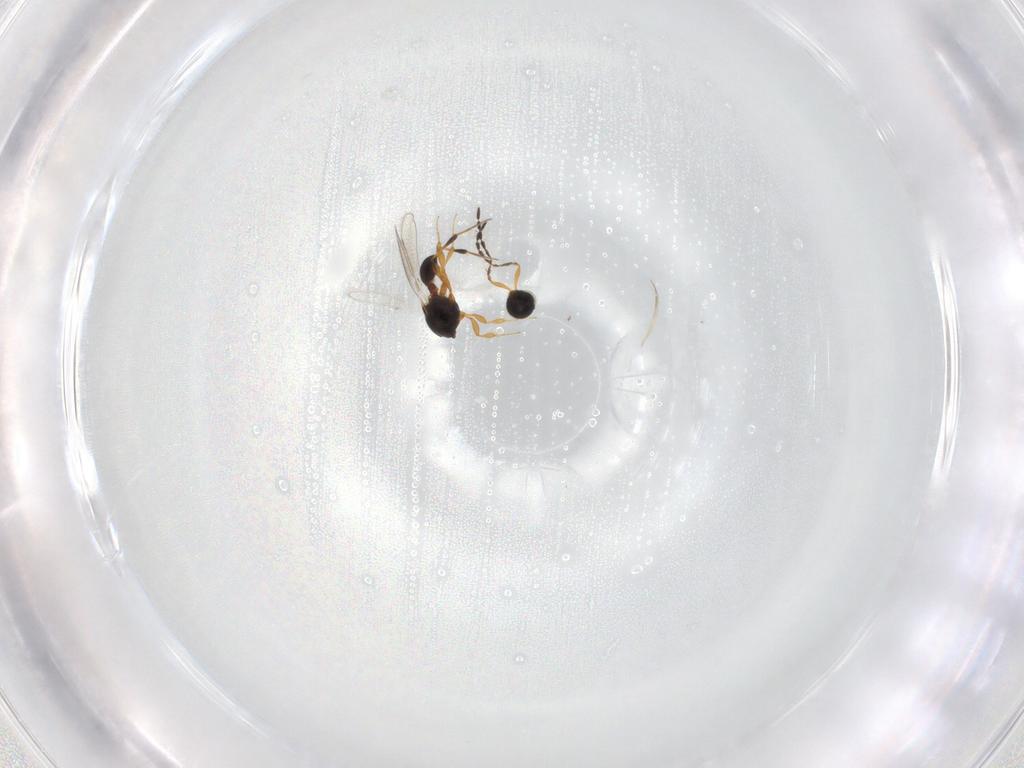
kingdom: Animalia
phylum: Arthropoda
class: Insecta
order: Hymenoptera
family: Platygastridae
